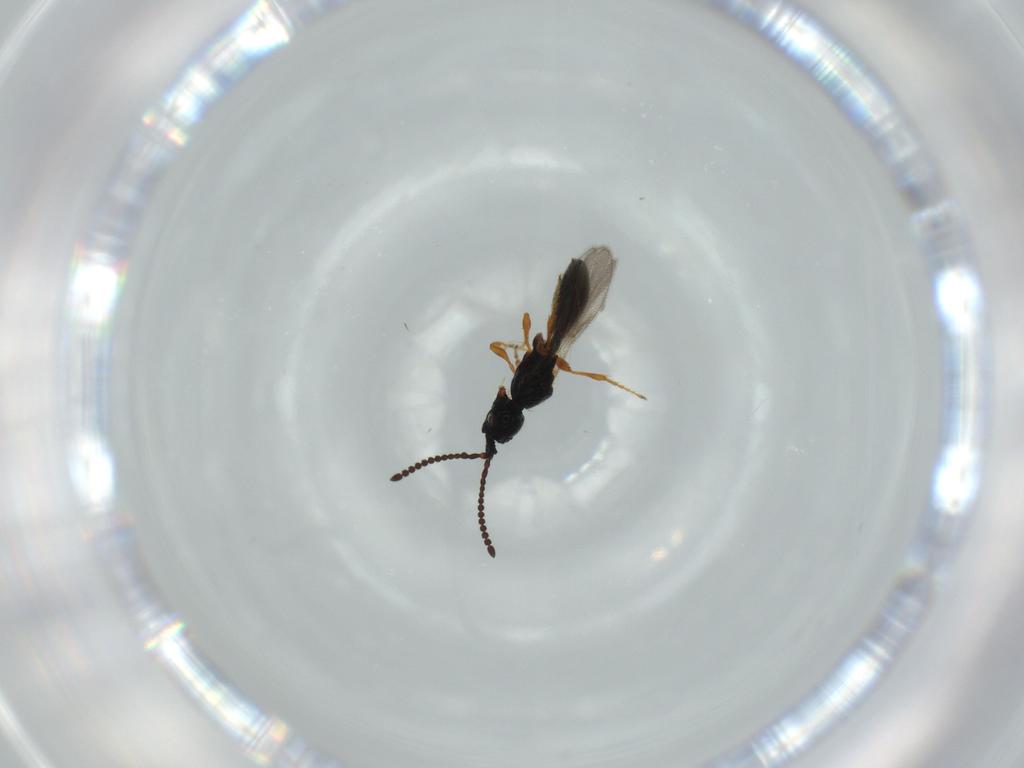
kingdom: Animalia
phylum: Arthropoda
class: Insecta
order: Hymenoptera
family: Diapriidae
